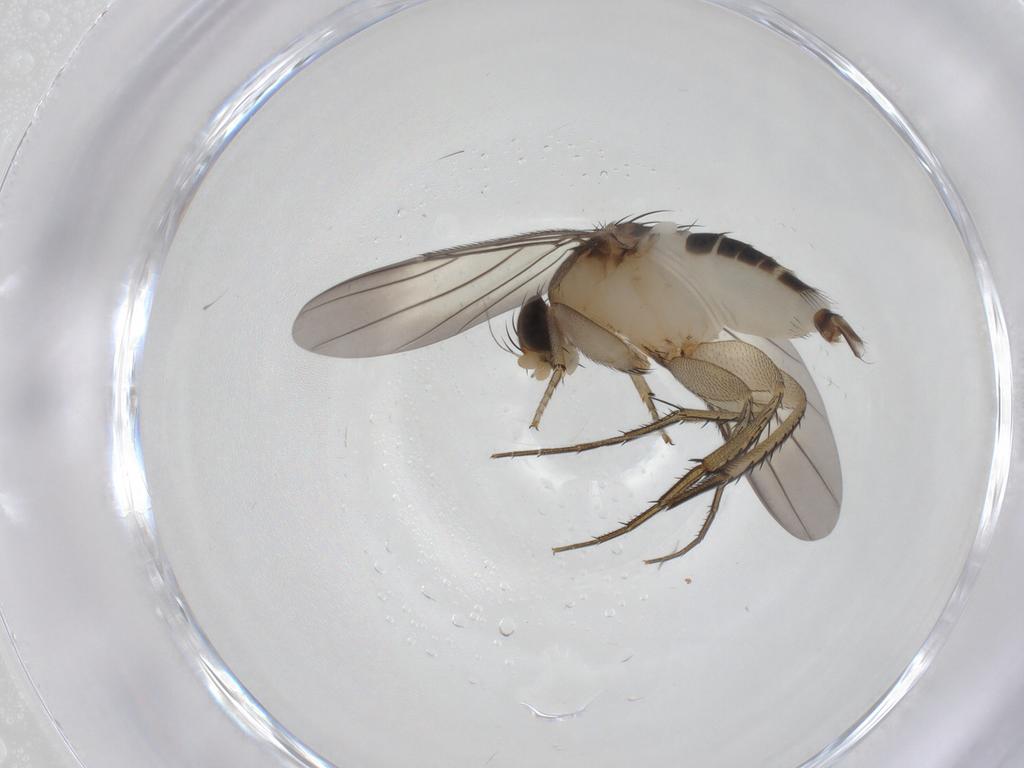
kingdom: Animalia
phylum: Arthropoda
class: Insecta
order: Diptera
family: Phoridae
